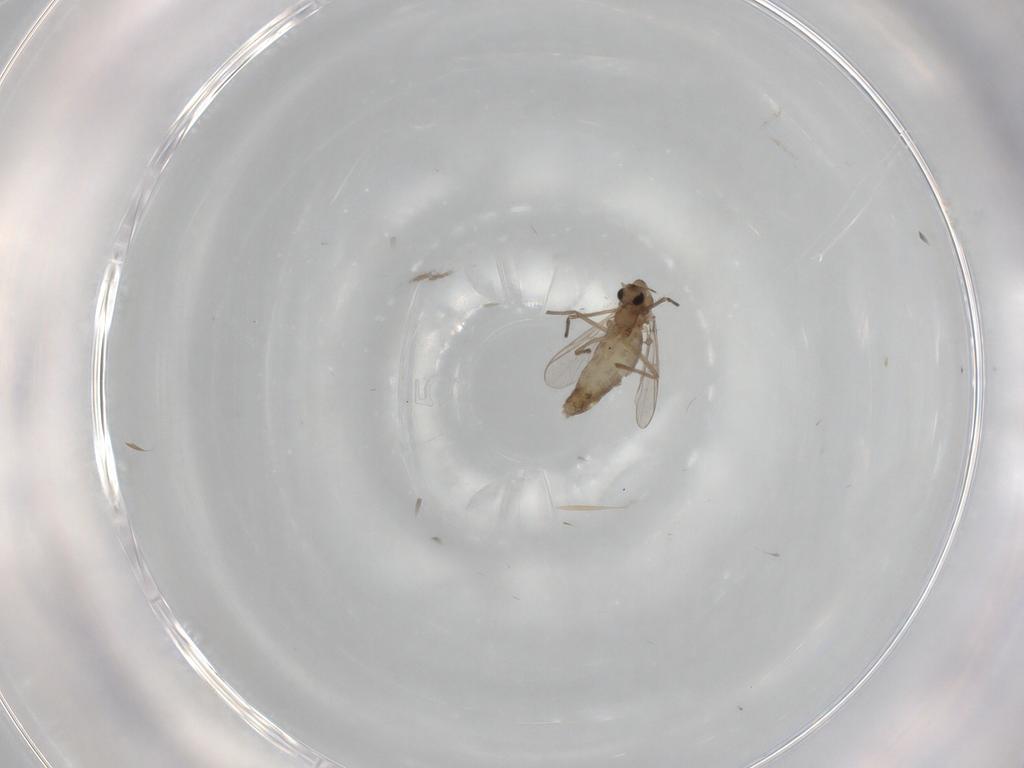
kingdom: Animalia
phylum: Arthropoda
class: Insecta
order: Diptera
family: Chironomidae
